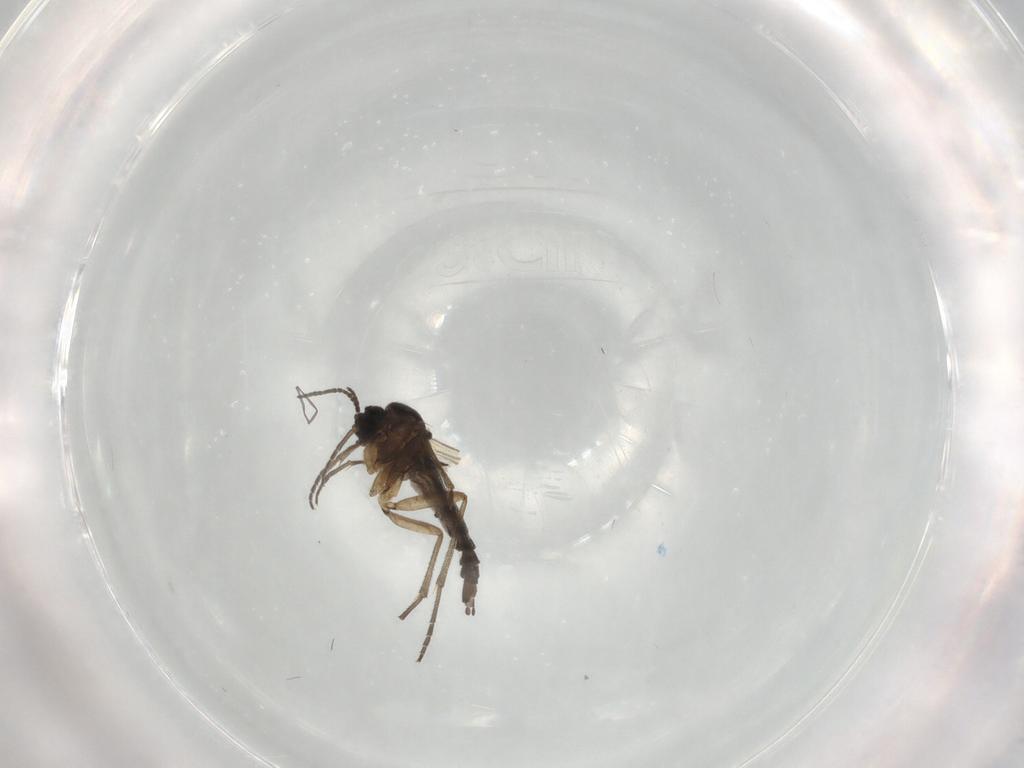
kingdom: Animalia
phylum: Arthropoda
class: Insecta
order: Diptera
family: Sciaridae
